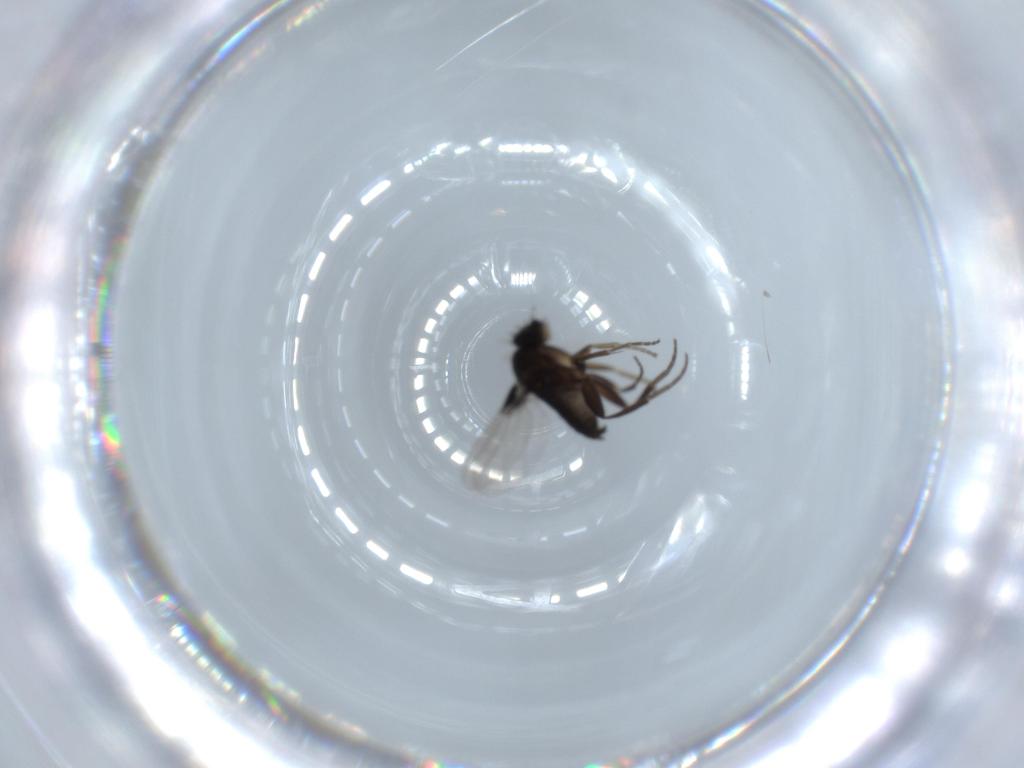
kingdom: Animalia
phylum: Arthropoda
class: Insecta
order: Diptera
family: Phoridae
